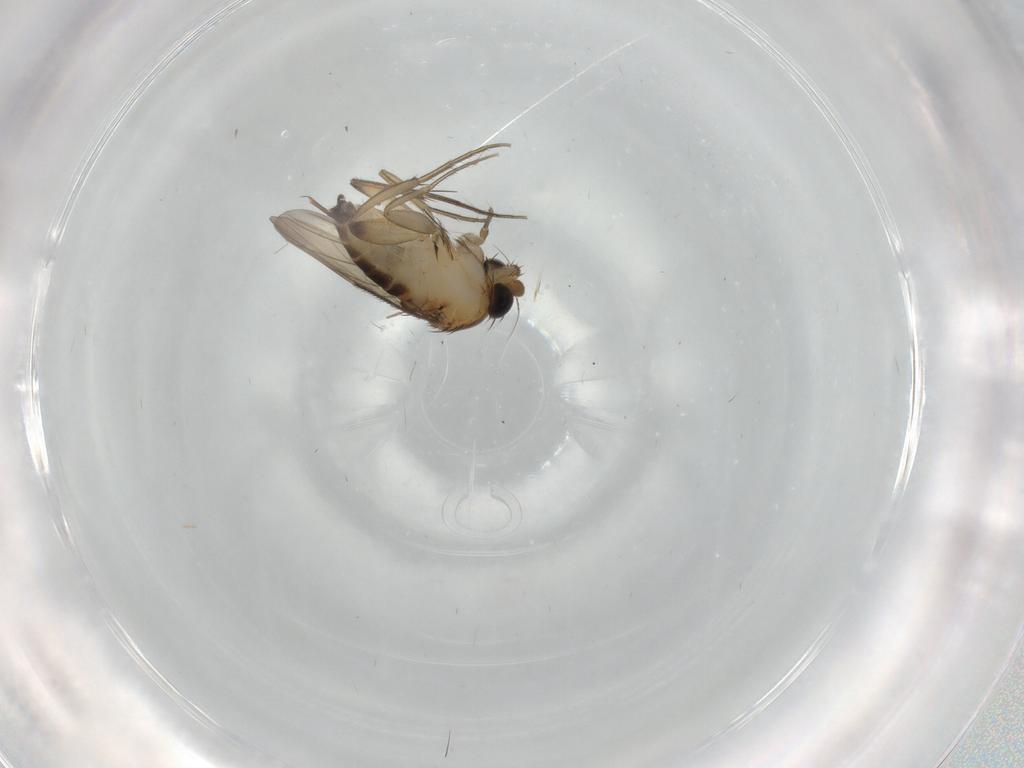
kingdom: Animalia
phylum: Arthropoda
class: Insecta
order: Diptera
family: Phoridae
